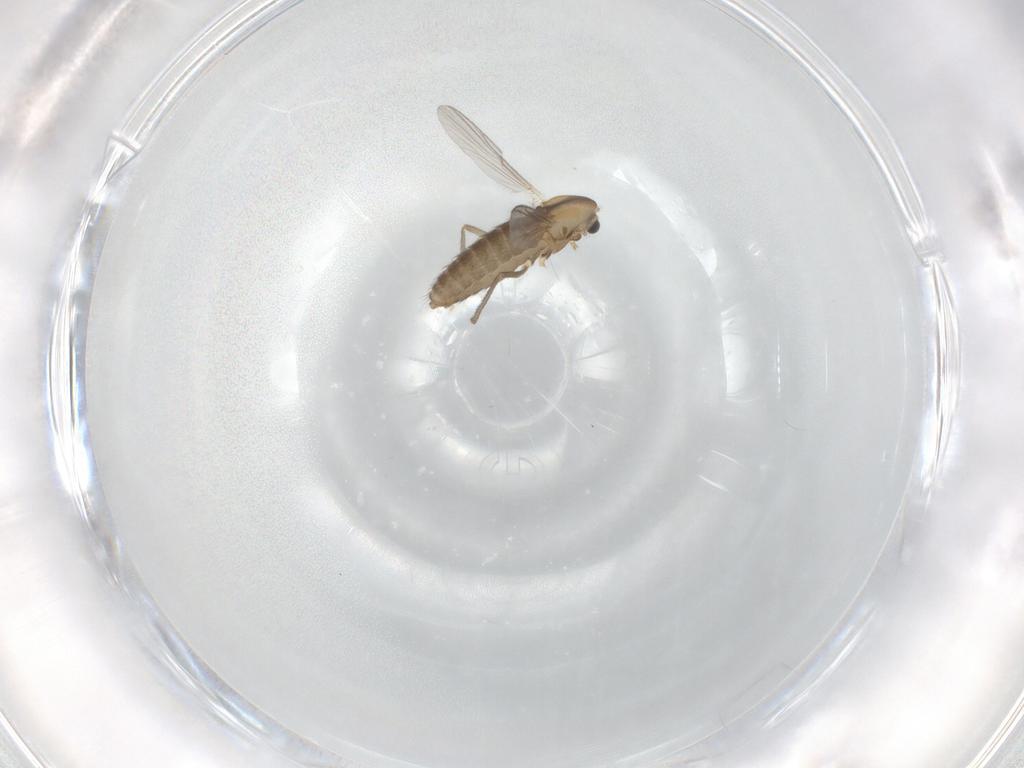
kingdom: Animalia
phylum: Arthropoda
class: Insecta
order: Diptera
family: Chironomidae
